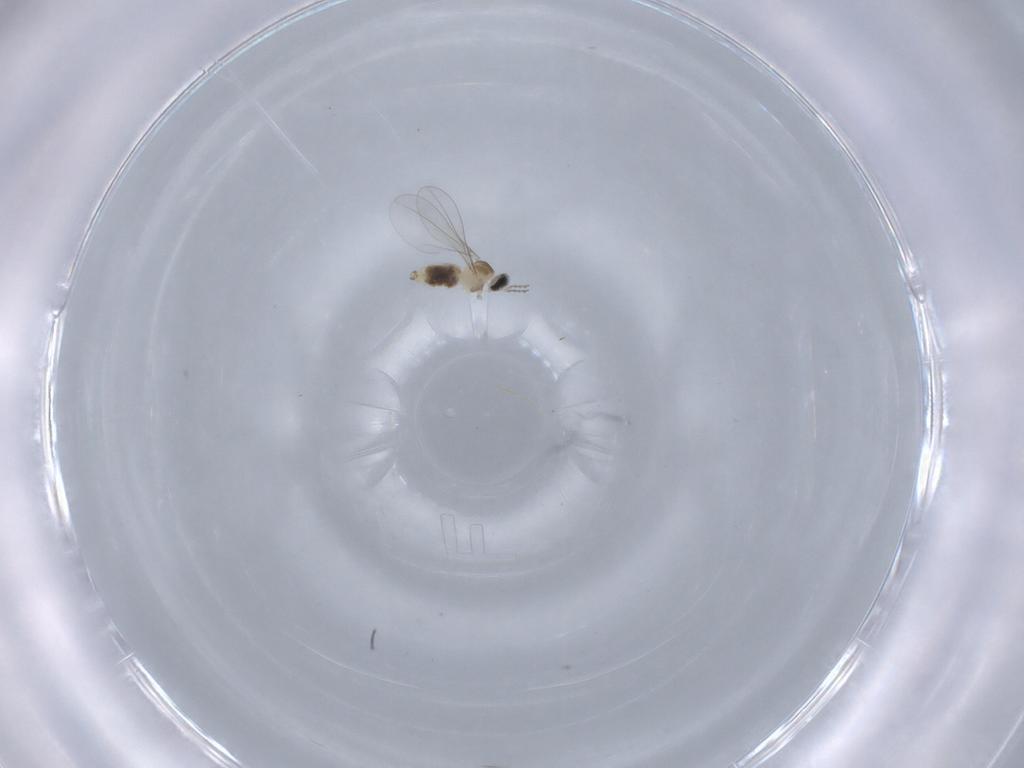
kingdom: Animalia
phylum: Arthropoda
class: Insecta
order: Diptera
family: Cecidomyiidae
